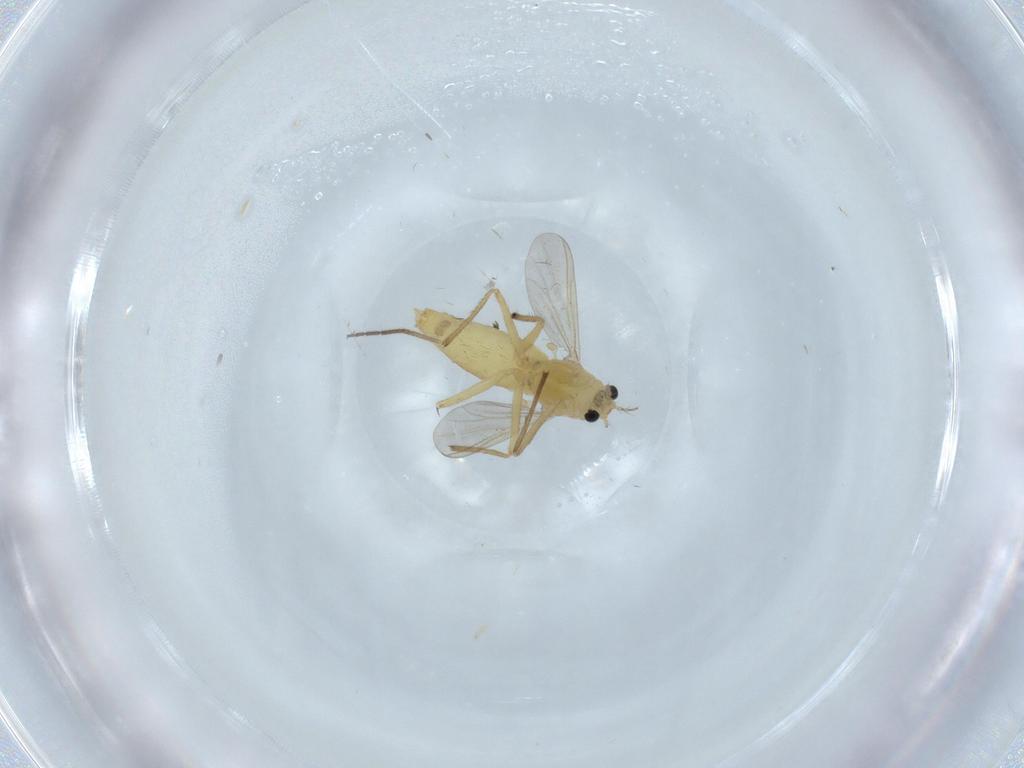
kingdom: Animalia
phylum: Arthropoda
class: Insecta
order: Diptera
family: Chironomidae
